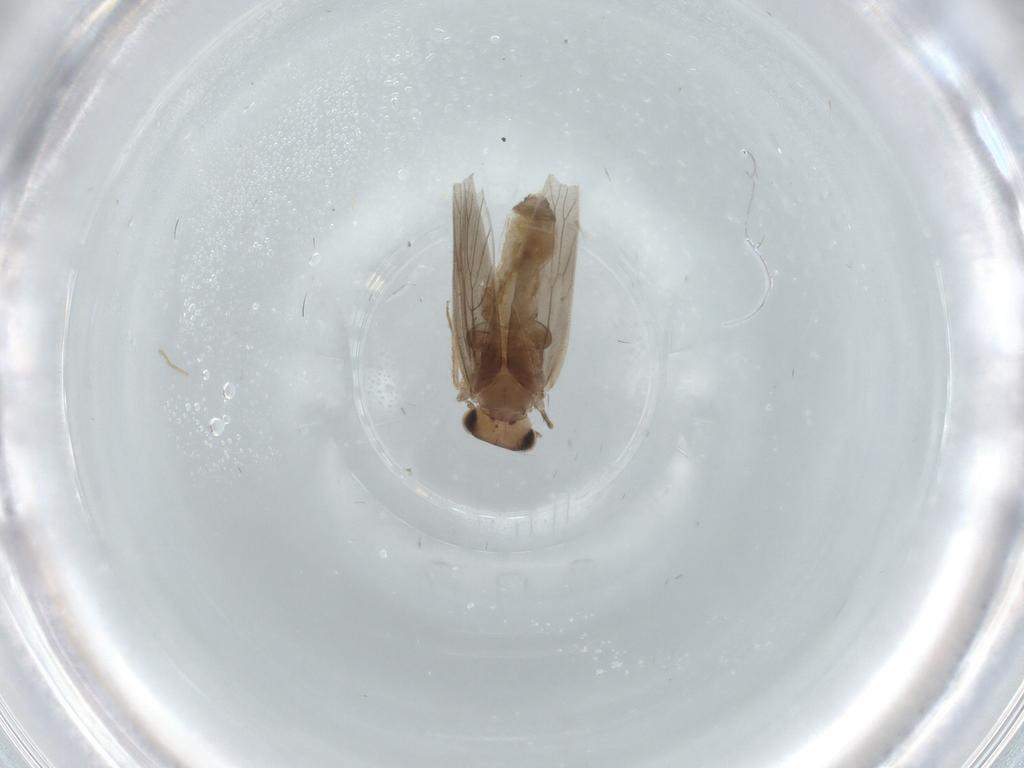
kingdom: Animalia
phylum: Arthropoda
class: Insecta
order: Psocodea
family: Lepidopsocidae
